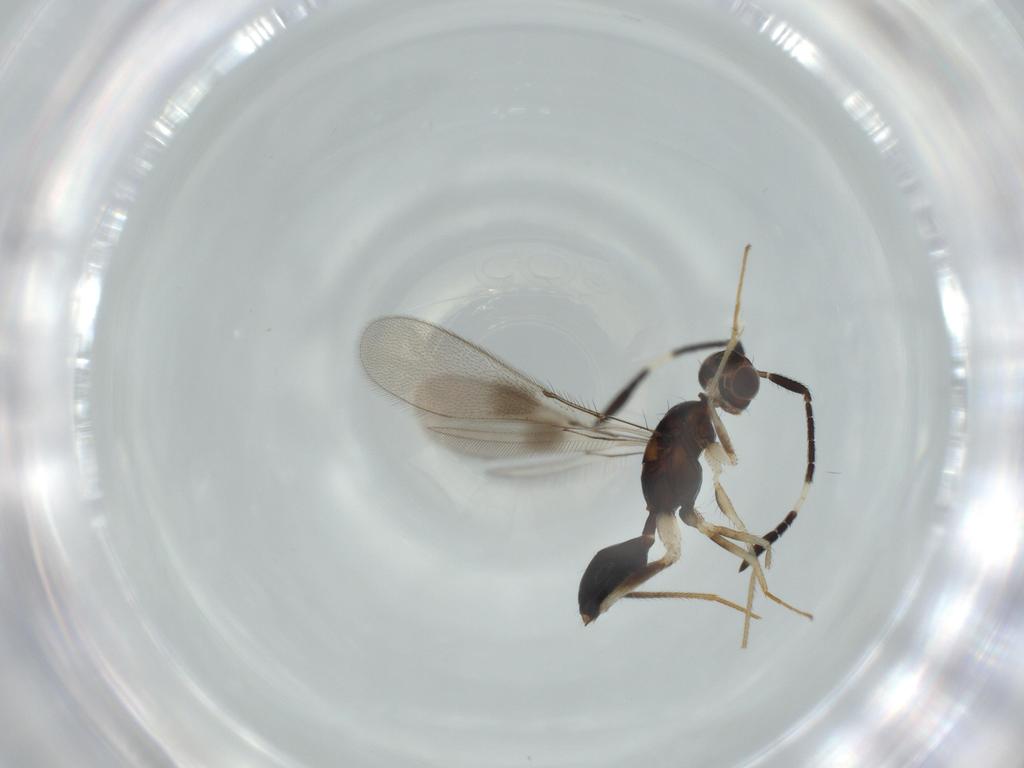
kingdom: Animalia
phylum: Arthropoda
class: Insecta
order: Hymenoptera
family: Mymaridae
